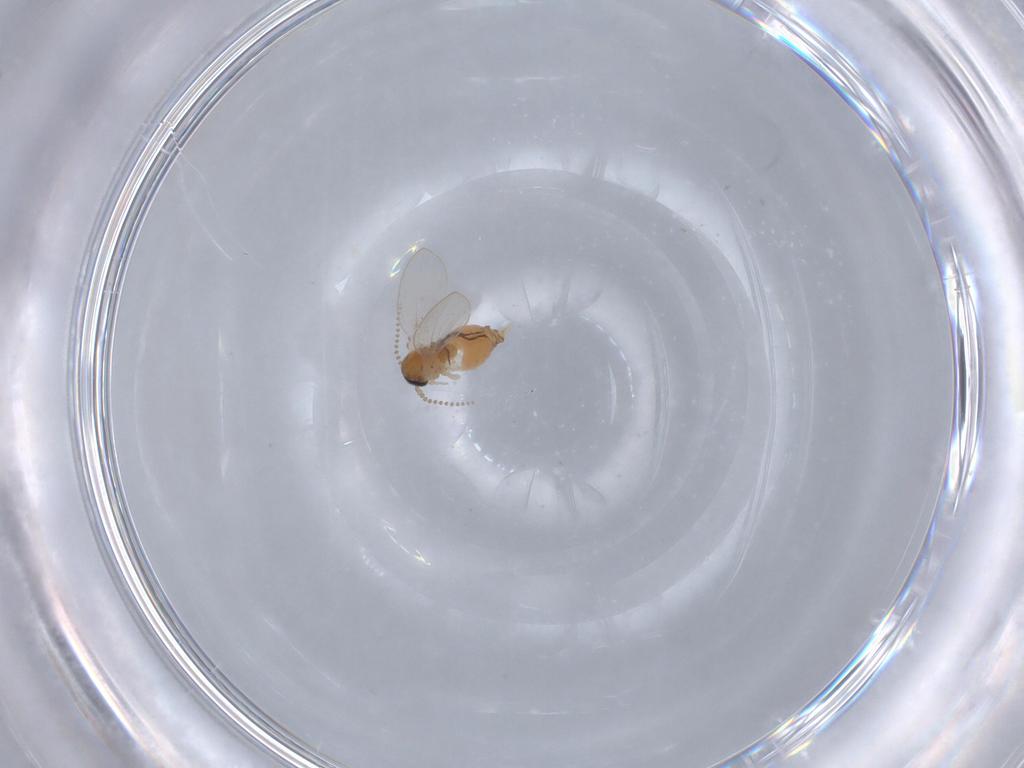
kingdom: Animalia
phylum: Arthropoda
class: Insecta
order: Diptera
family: Psychodidae
